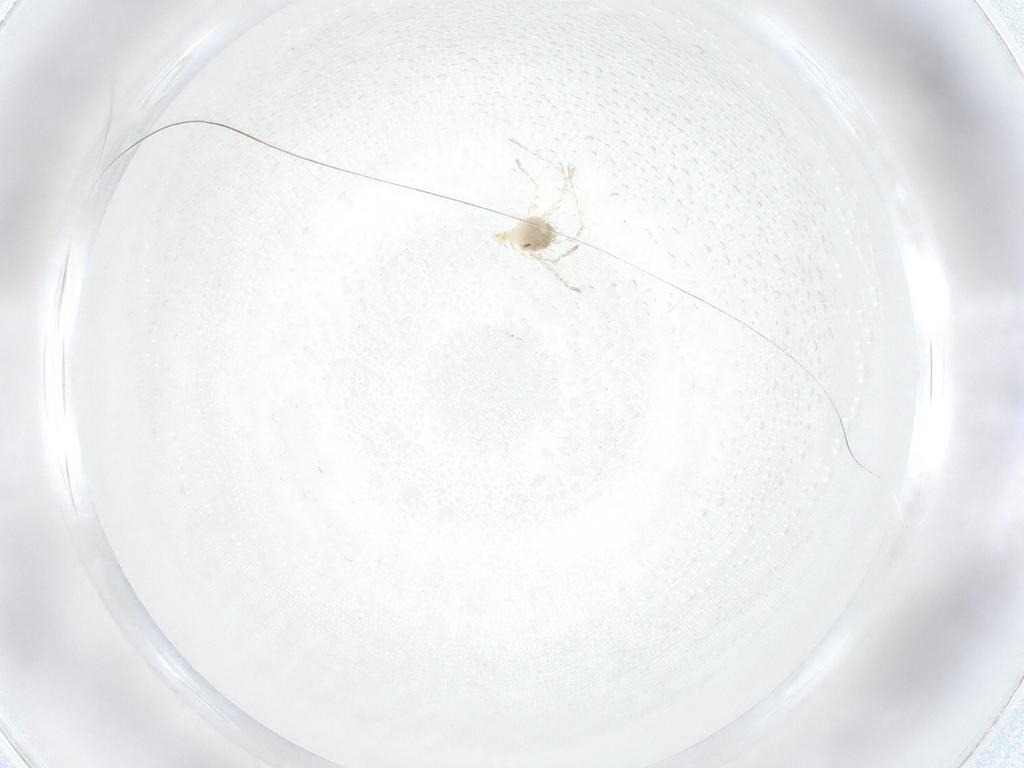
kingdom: Animalia
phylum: Arthropoda
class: Arachnida
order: Trombidiformes
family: Erythraeidae
